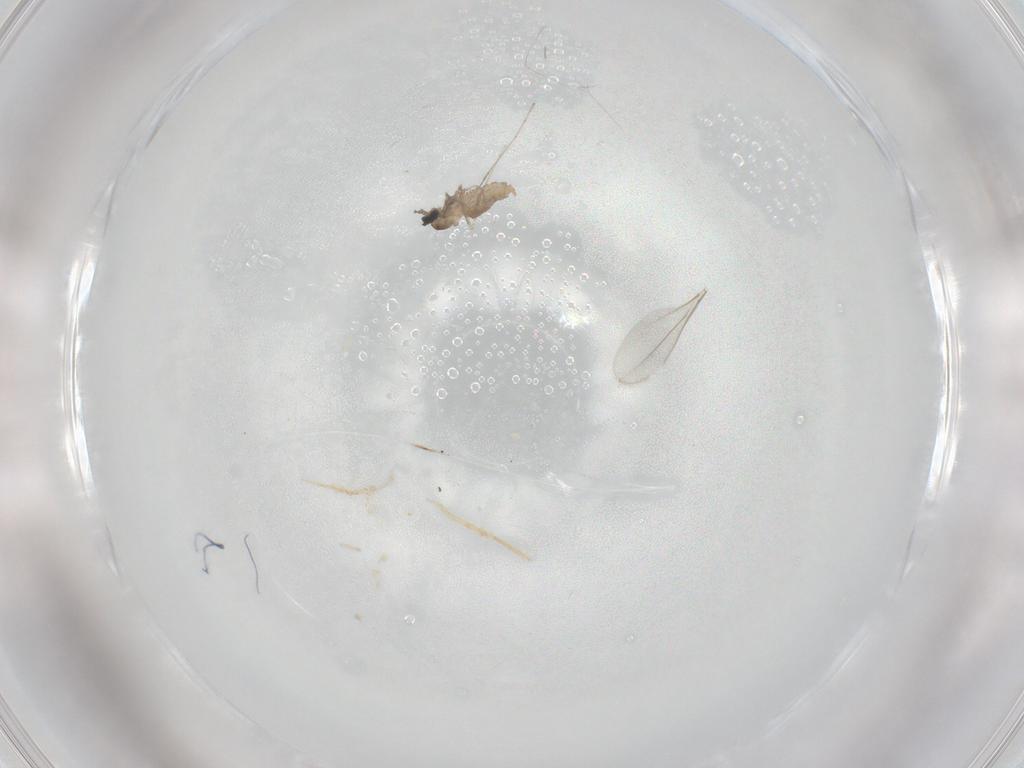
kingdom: Animalia
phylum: Arthropoda
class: Insecta
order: Diptera
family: Cecidomyiidae
